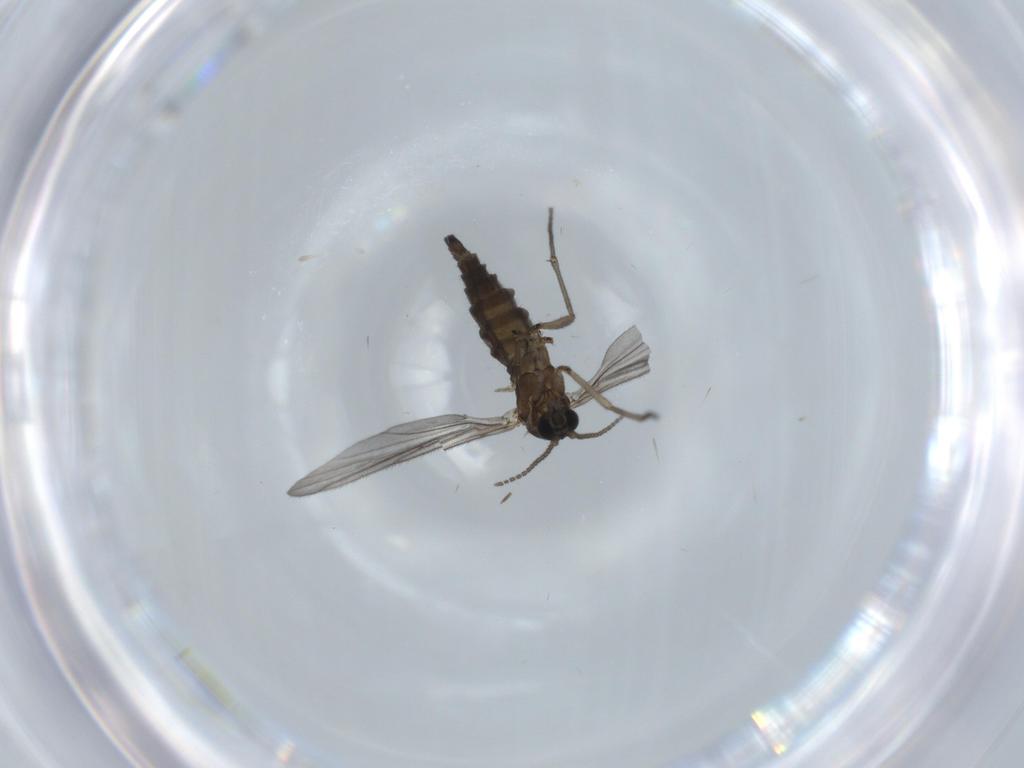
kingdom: Animalia
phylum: Arthropoda
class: Insecta
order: Diptera
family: Sciaridae
